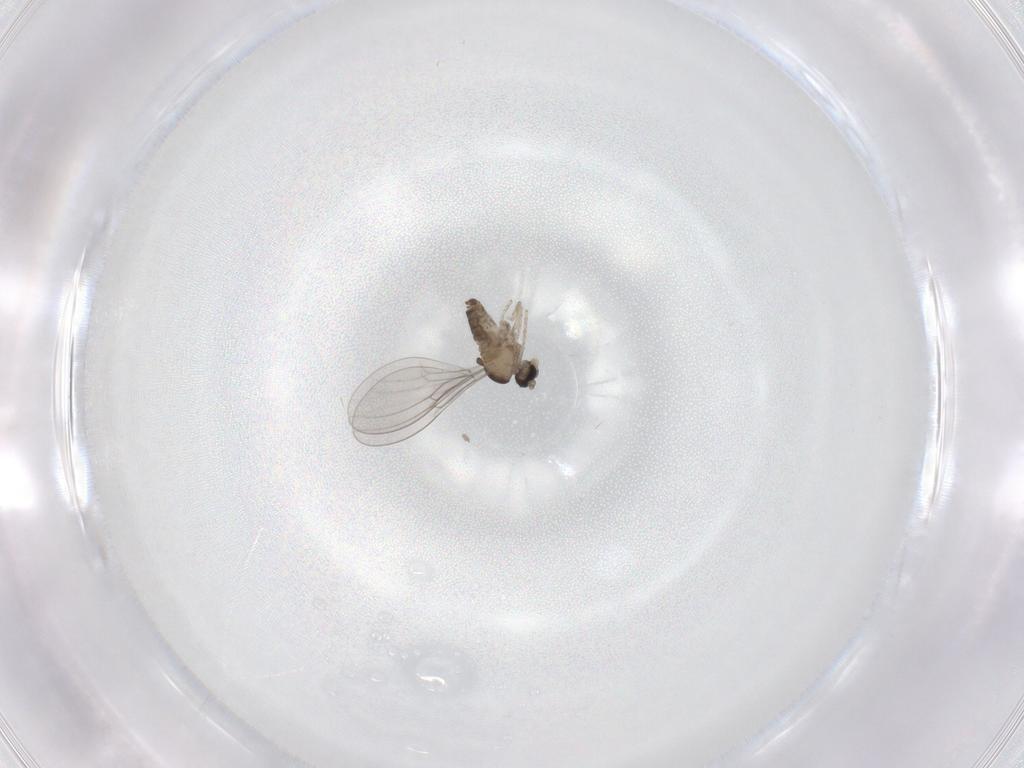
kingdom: Animalia
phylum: Arthropoda
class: Insecta
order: Diptera
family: Cecidomyiidae
